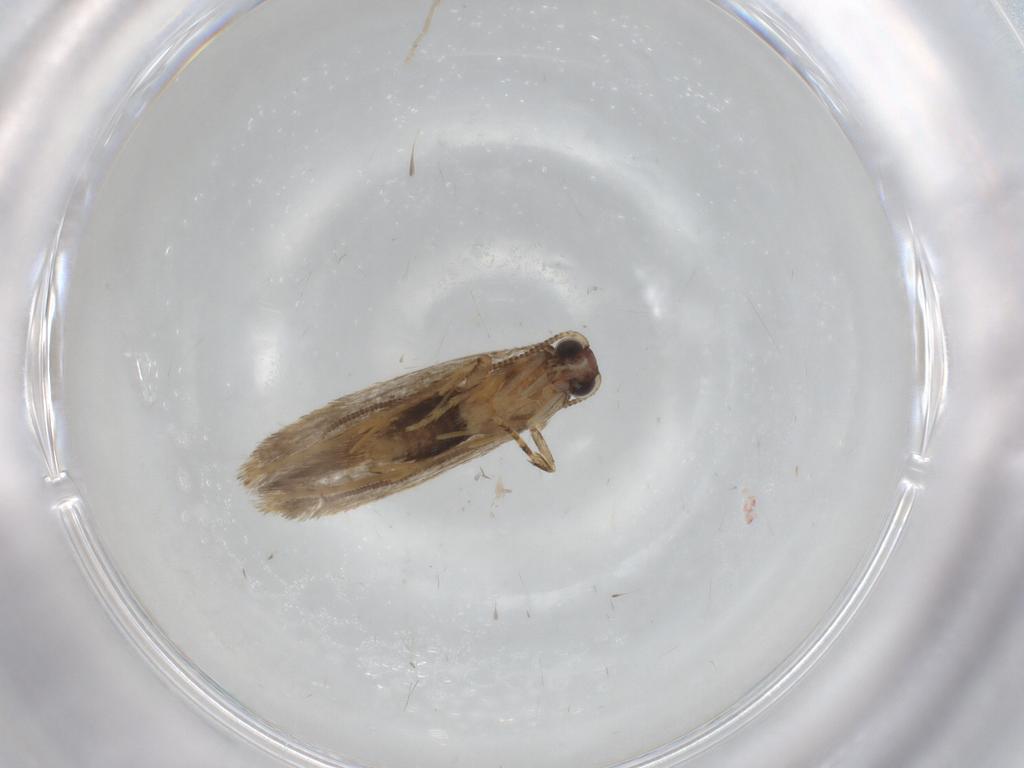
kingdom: Animalia
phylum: Arthropoda
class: Insecta
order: Lepidoptera
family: Tineidae
